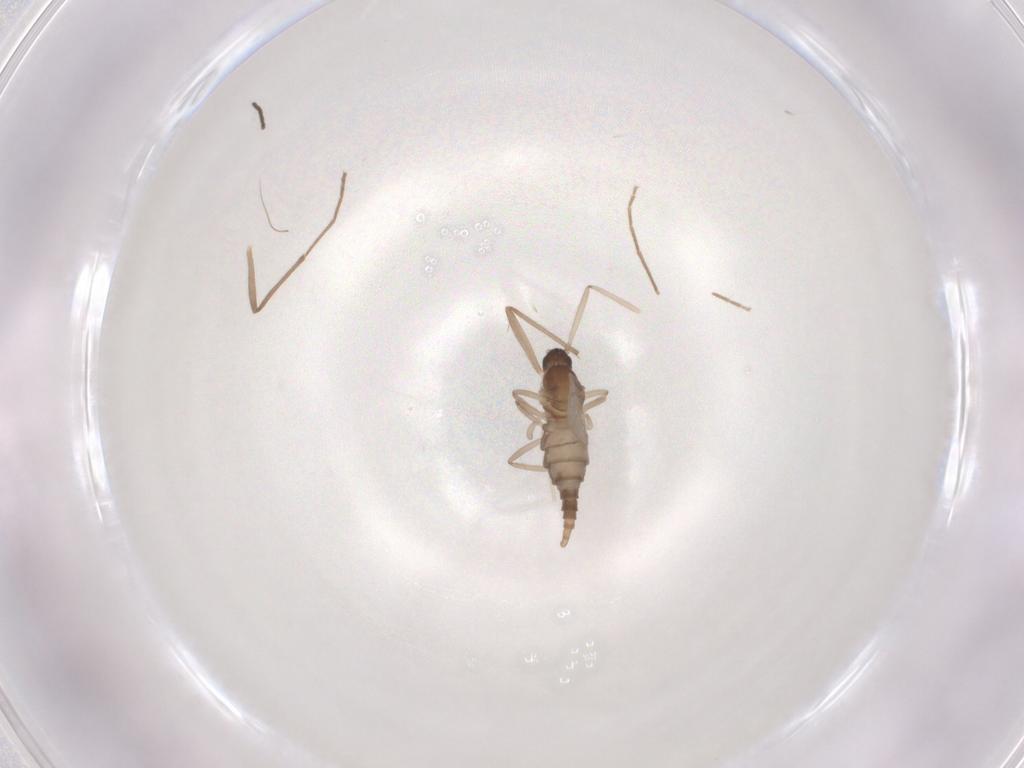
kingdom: Animalia
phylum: Arthropoda
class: Insecta
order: Diptera
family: Cecidomyiidae
